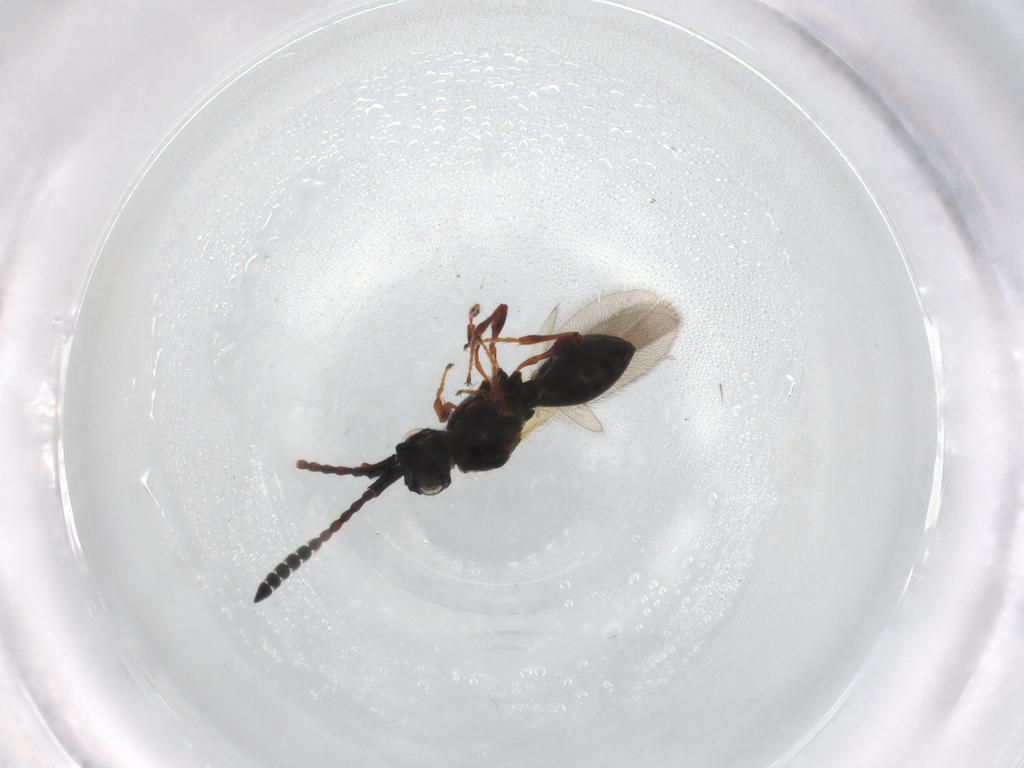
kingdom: Animalia
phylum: Arthropoda
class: Insecta
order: Hymenoptera
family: Diapriidae
